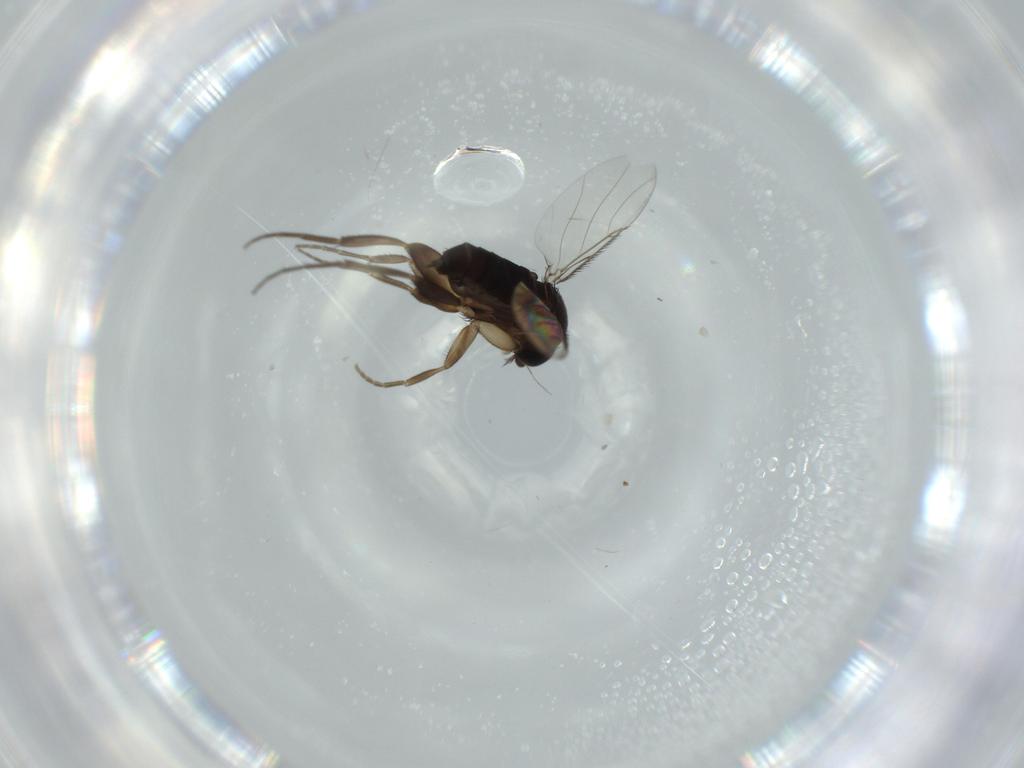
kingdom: Animalia
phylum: Arthropoda
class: Insecta
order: Diptera
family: Phoridae
